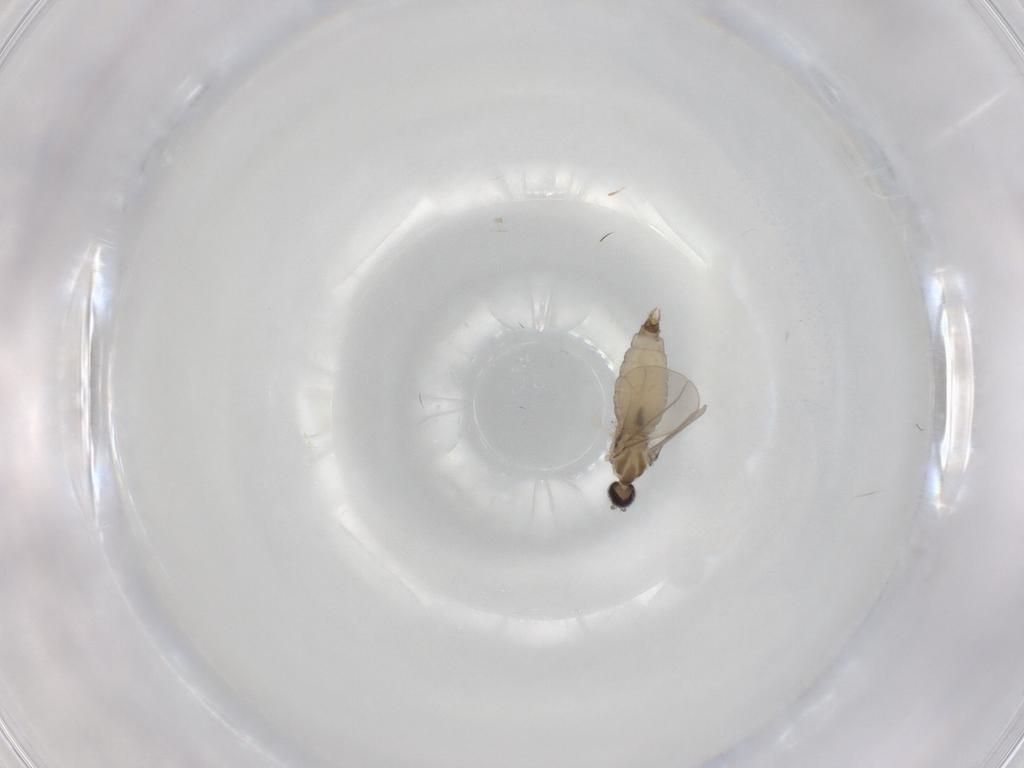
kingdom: Animalia
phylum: Arthropoda
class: Insecta
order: Diptera
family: Cecidomyiidae
